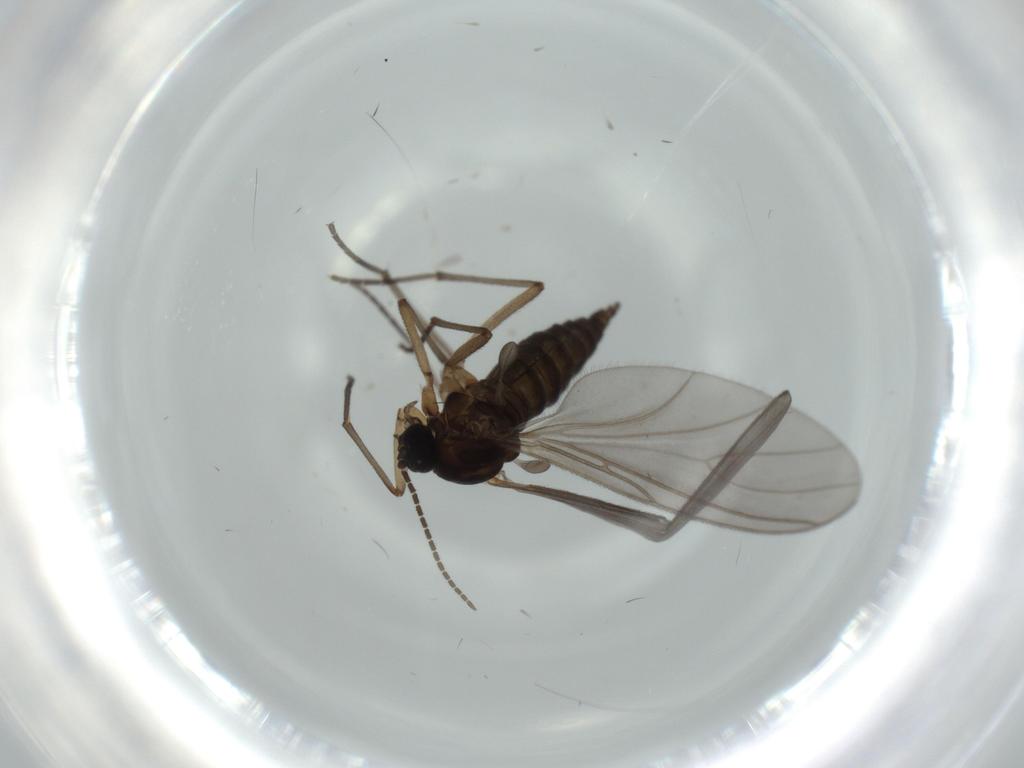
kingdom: Animalia
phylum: Arthropoda
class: Insecta
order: Diptera
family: Sciaridae
